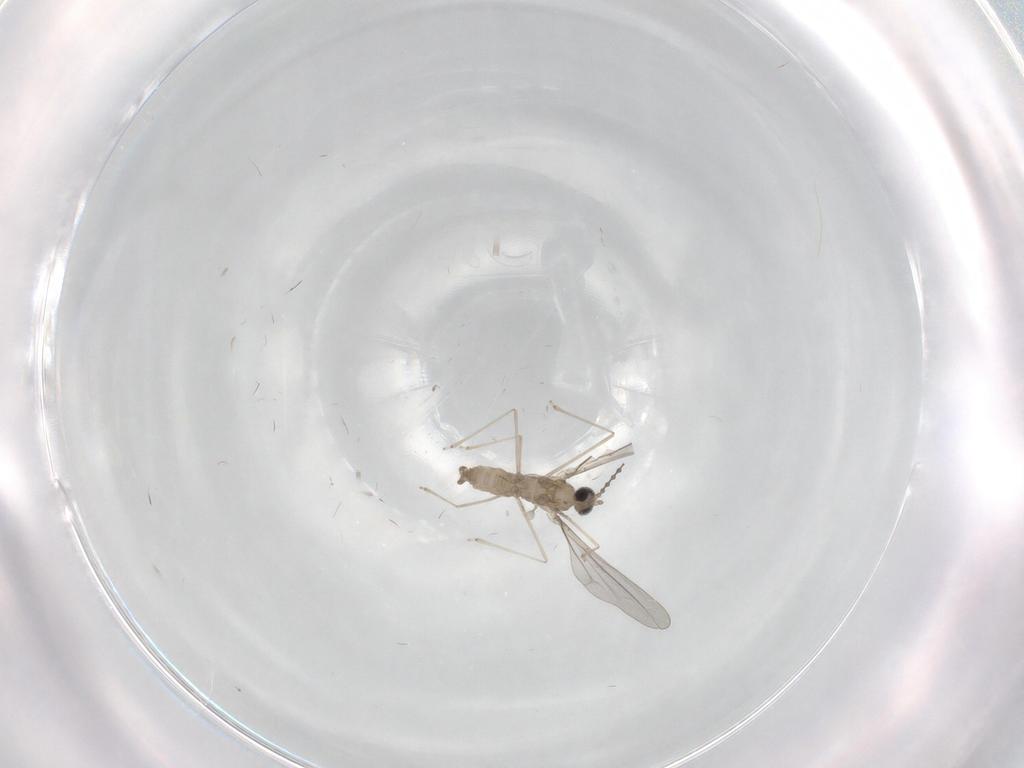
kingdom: Animalia
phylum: Arthropoda
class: Insecta
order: Diptera
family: Cecidomyiidae
